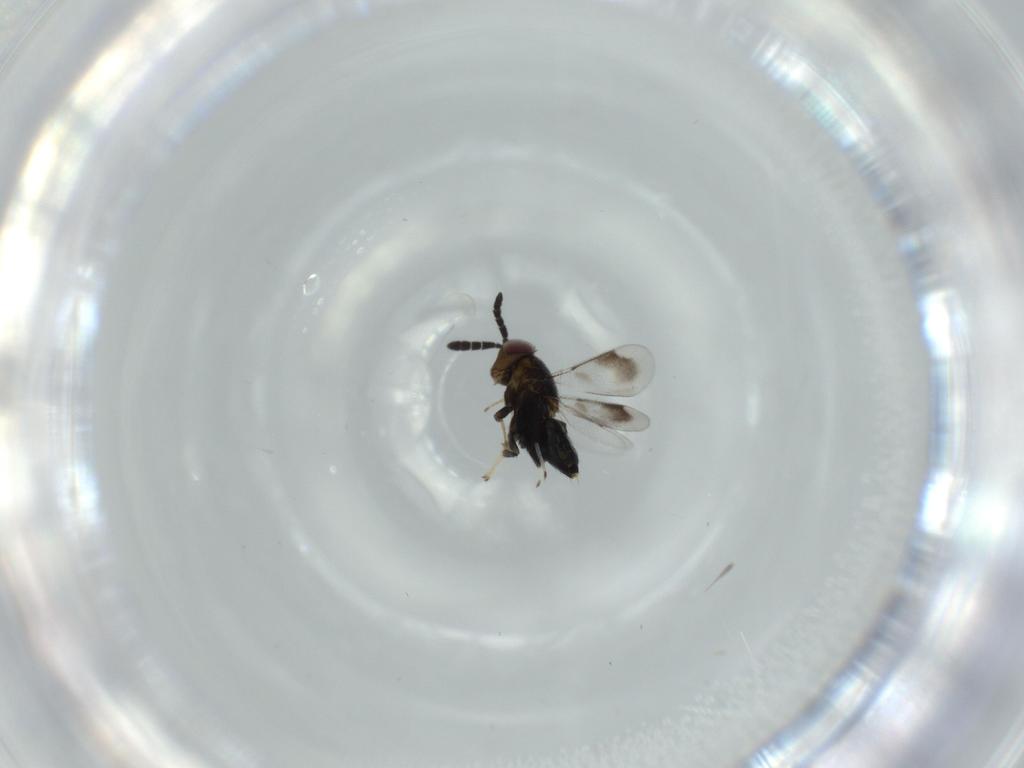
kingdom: Animalia
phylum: Arthropoda
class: Insecta
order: Hymenoptera
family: Aphelinidae
